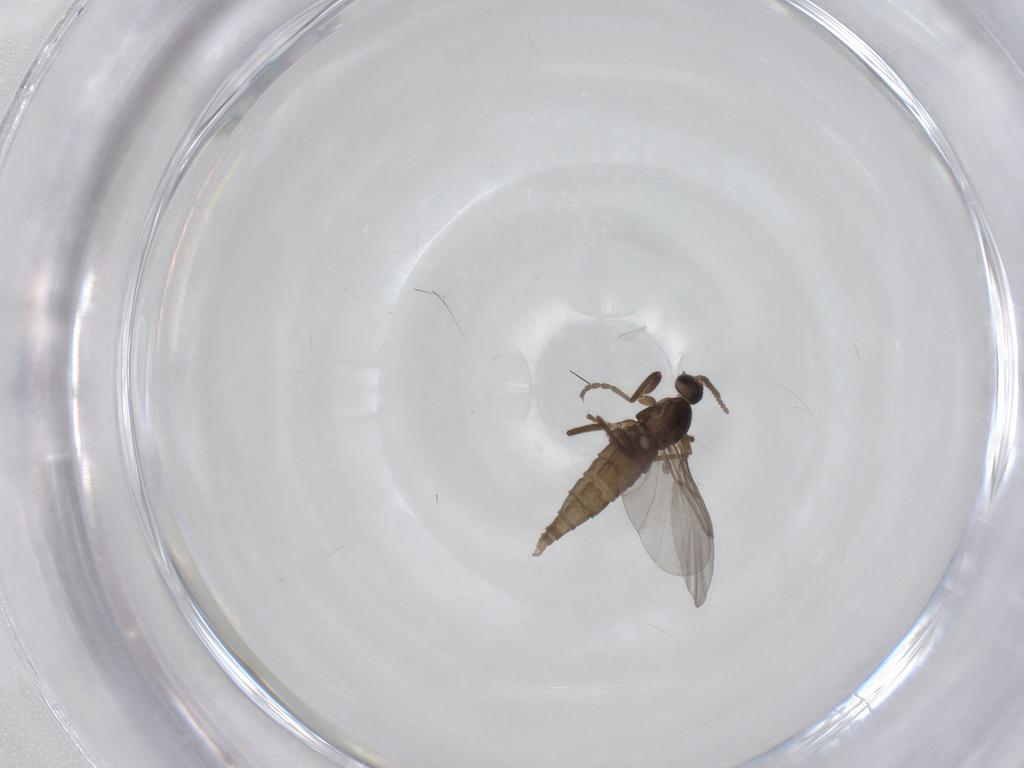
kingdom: Animalia
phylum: Arthropoda
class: Insecta
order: Diptera
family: Cecidomyiidae
